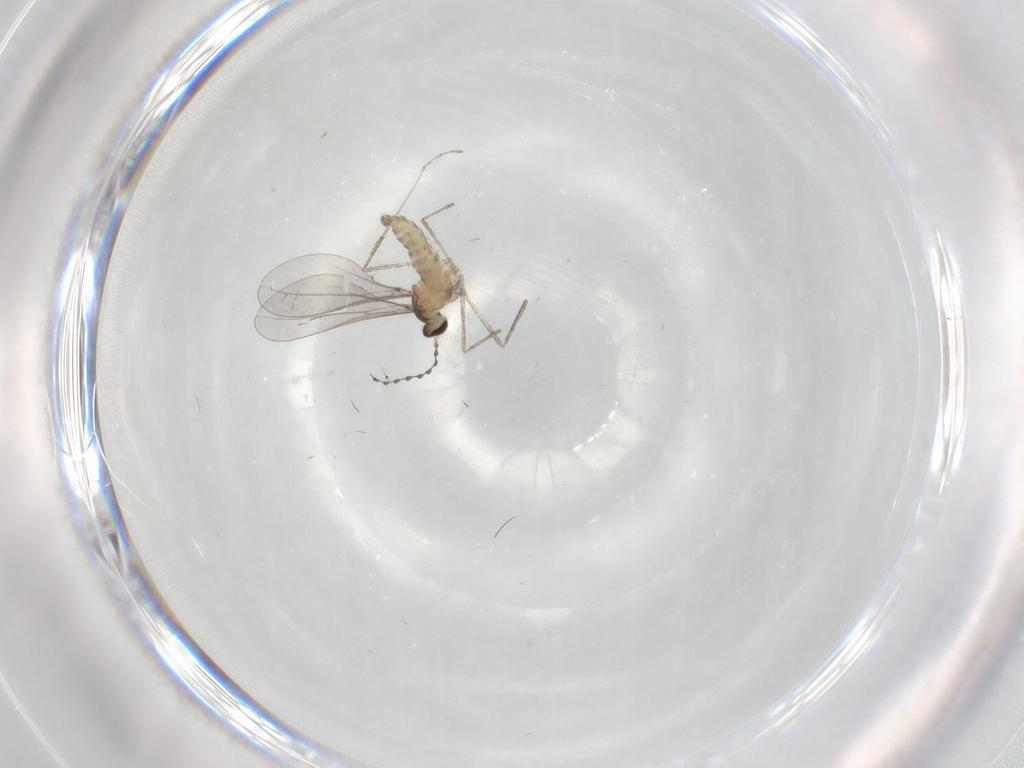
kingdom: Animalia
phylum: Arthropoda
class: Insecta
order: Diptera
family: Cecidomyiidae
